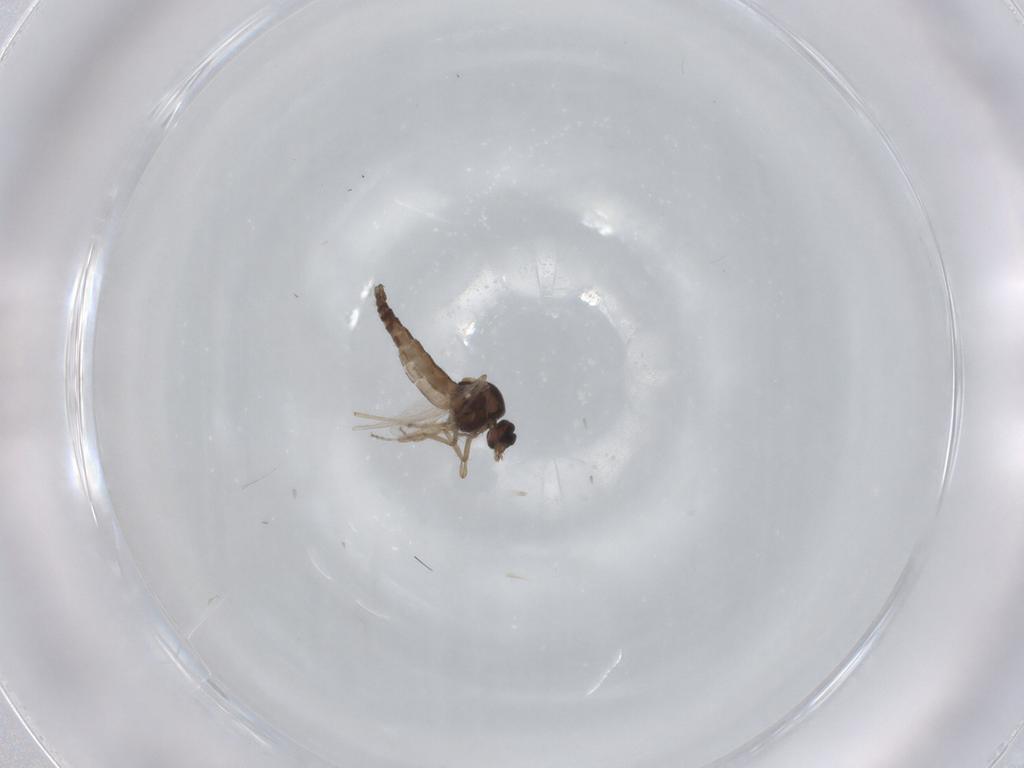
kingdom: Animalia
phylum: Arthropoda
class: Insecta
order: Diptera
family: Ceratopogonidae
